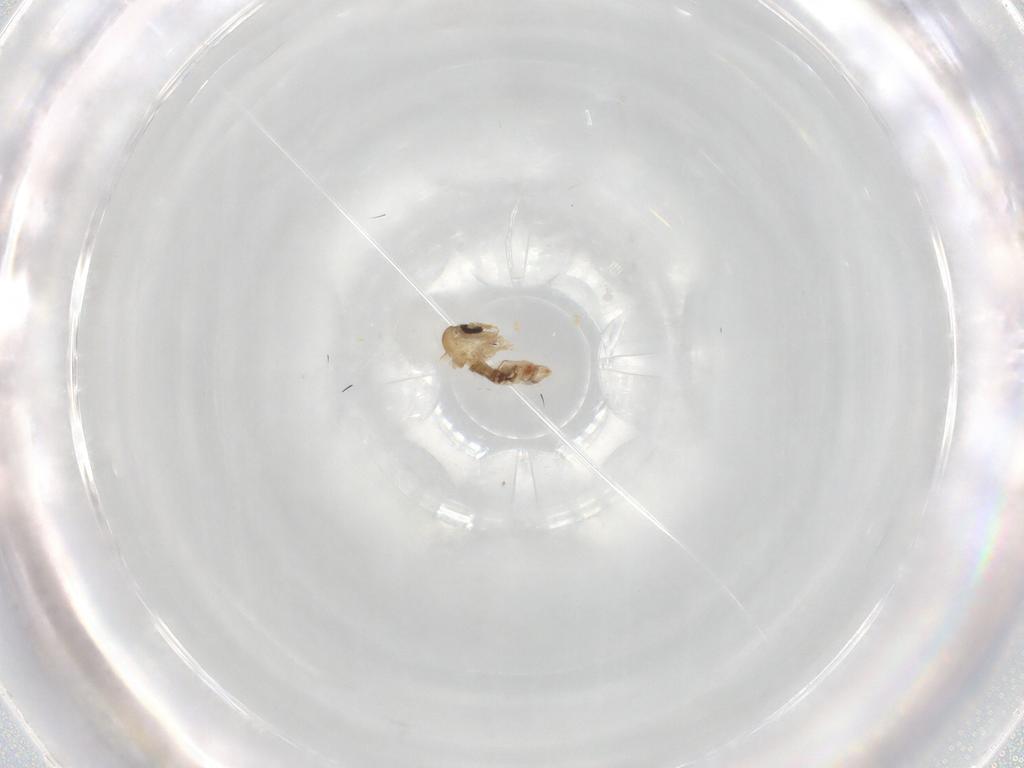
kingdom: Animalia
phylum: Arthropoda
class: Insecta
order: Diptera
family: Psychodidae
